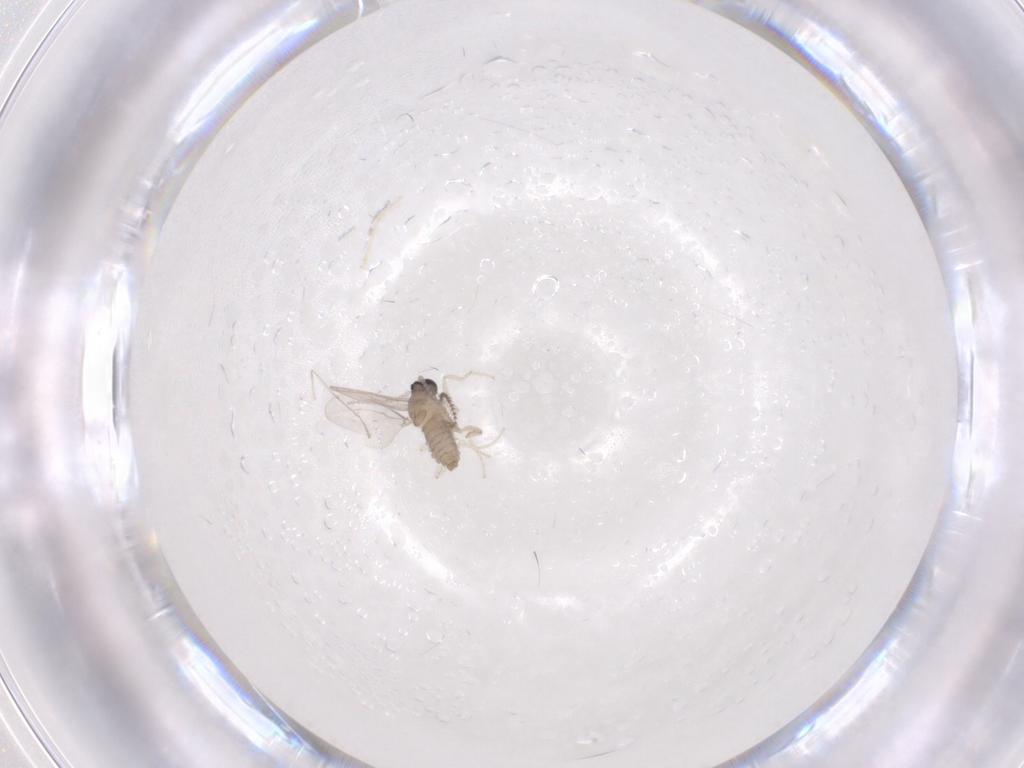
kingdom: Animalia
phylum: Arthropoda
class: Insecta
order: Diptera
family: Cecidomyiidae
